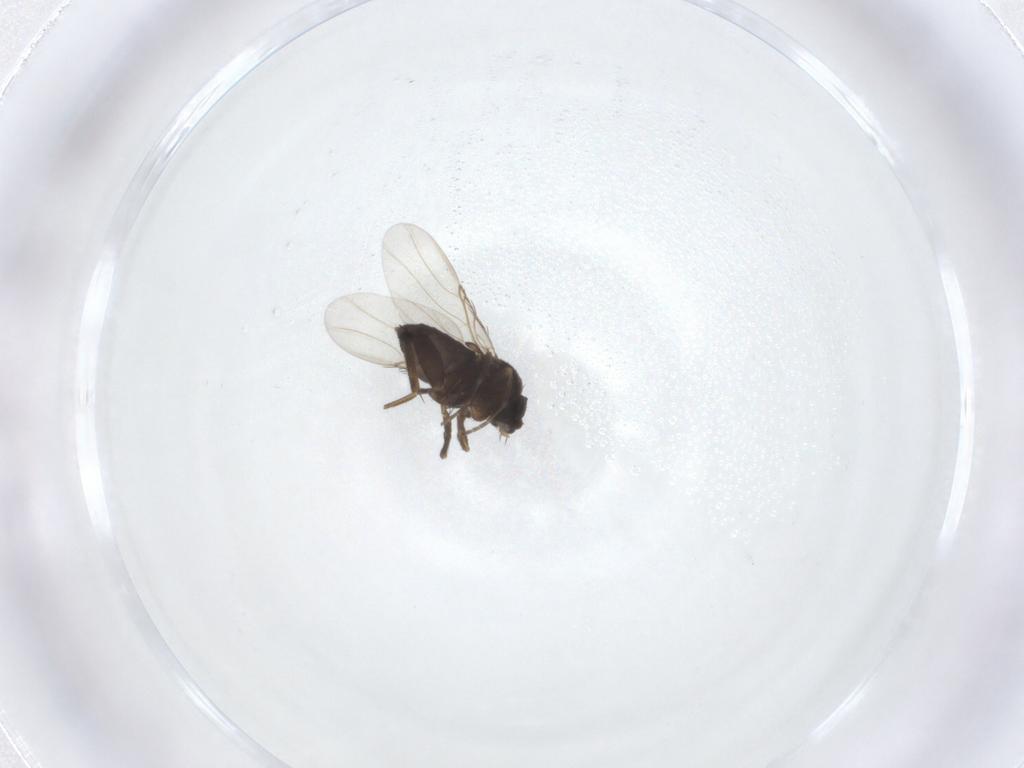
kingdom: Animalia
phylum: Arthropoda
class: Insecta
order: Diptera
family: Phoridae
